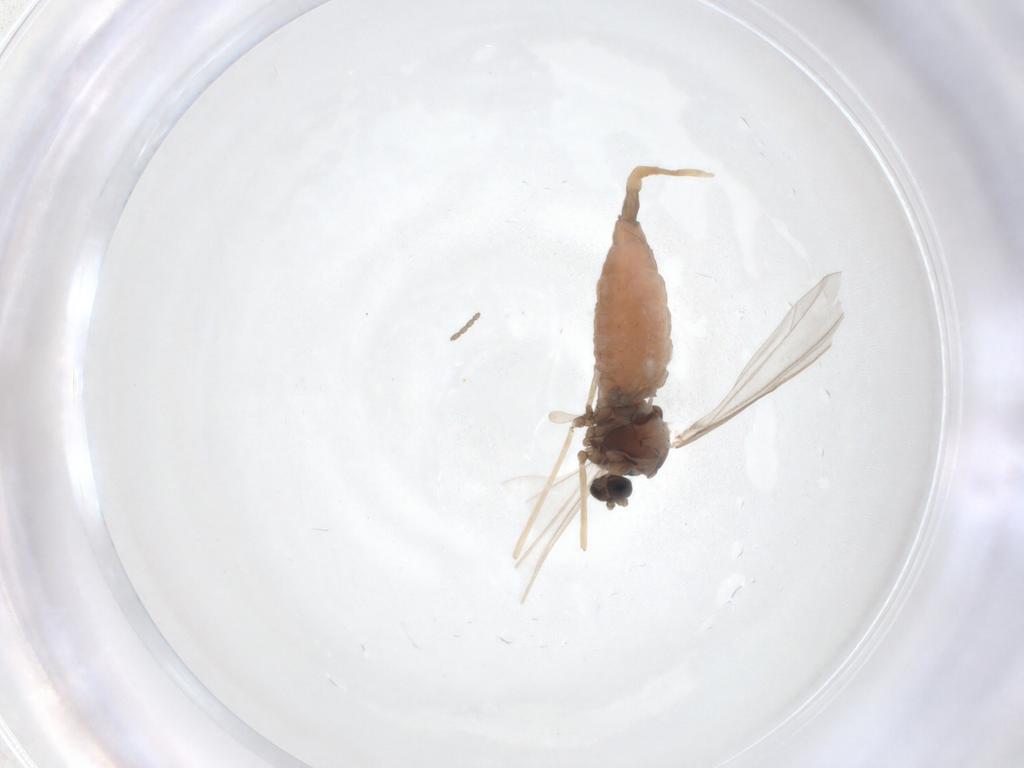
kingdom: Animalia
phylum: Arthropoda
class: Insecta
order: Diptera
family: Cecidomyiidae
